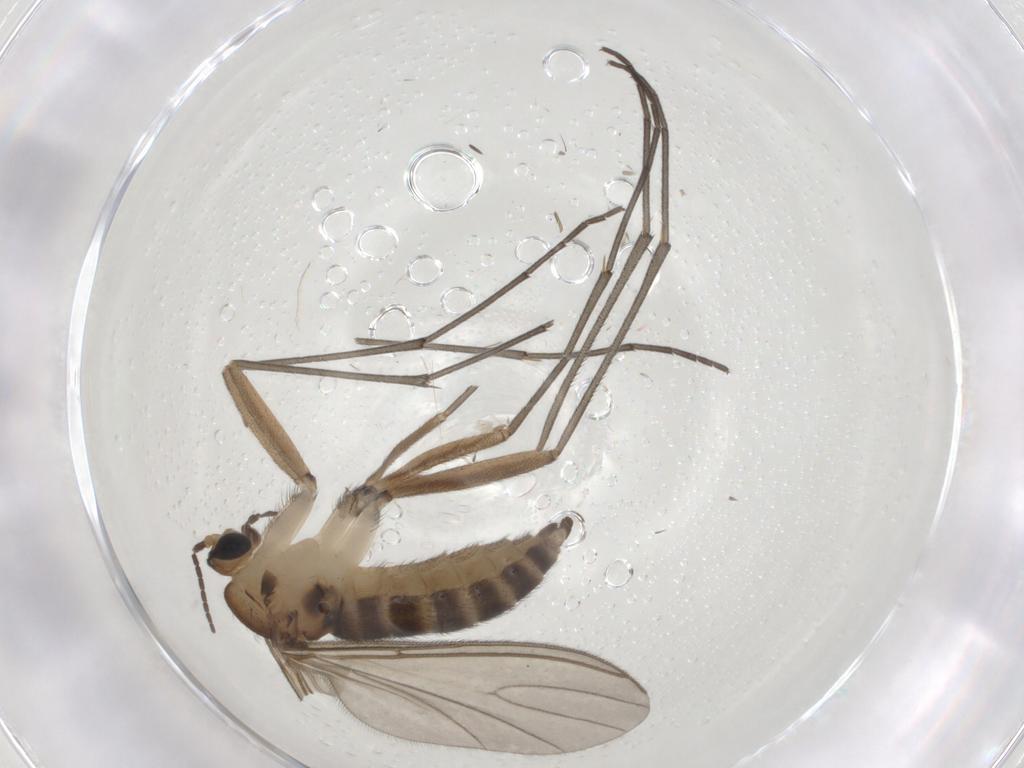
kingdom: Animalia
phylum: Arthropoda
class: Insecta
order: Diptera
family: Sciaridae
